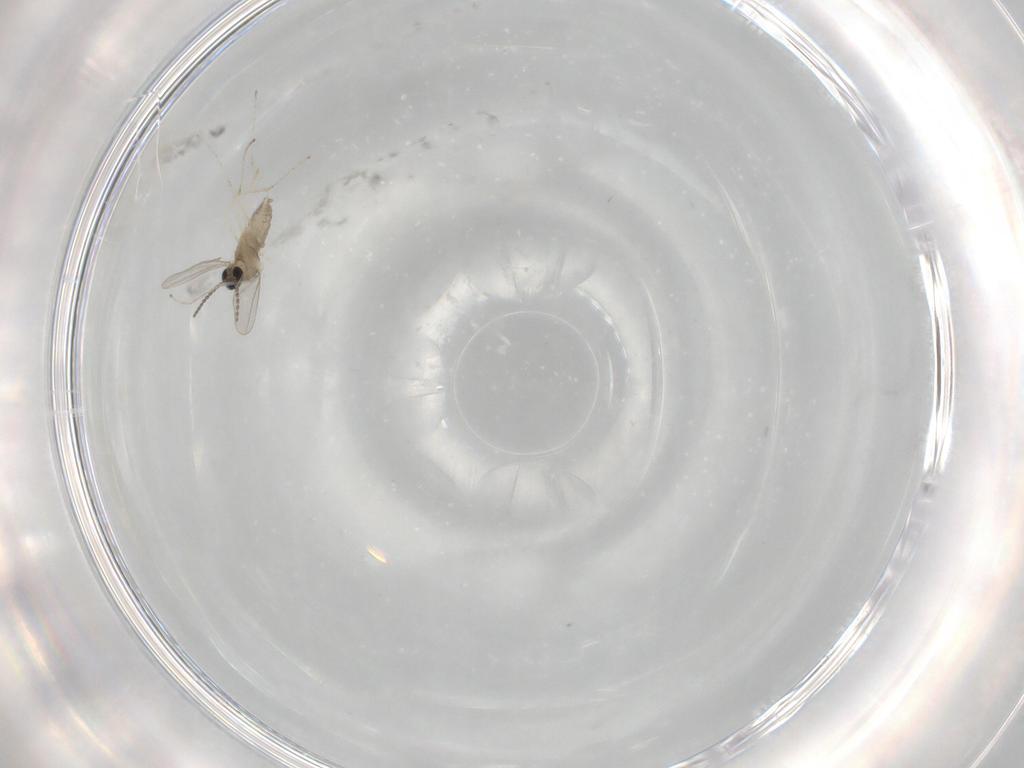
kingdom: Animalia
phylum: Arthropoda
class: Insecta
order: Diptera
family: Cecidomyiidae
